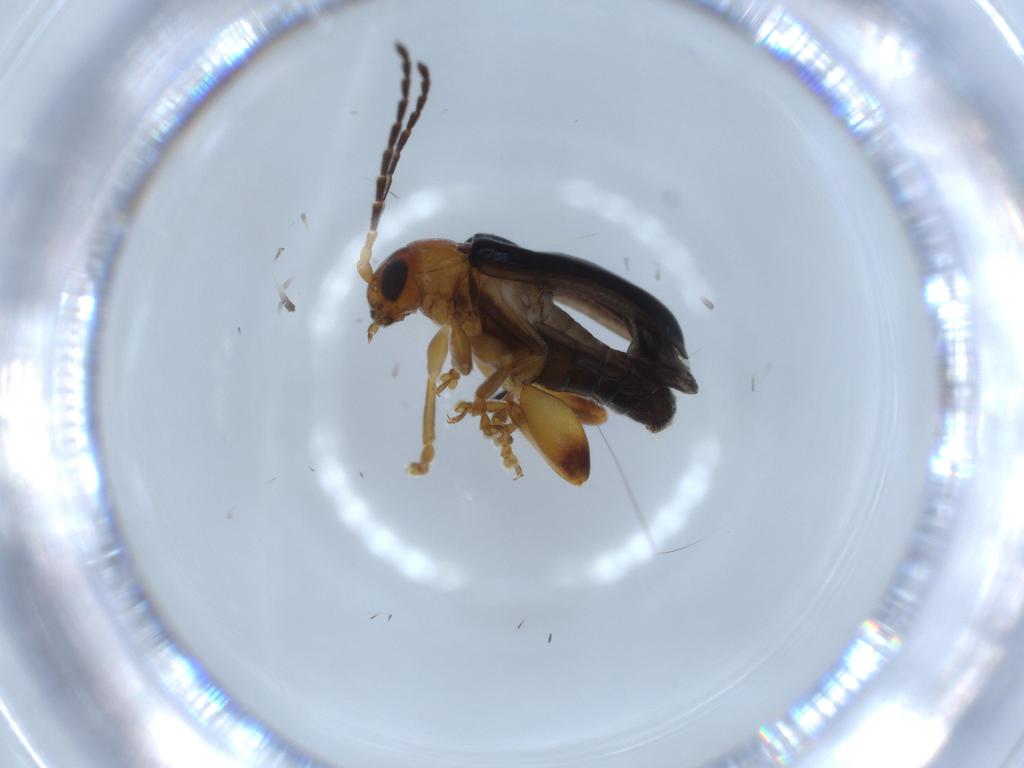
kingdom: Animalia
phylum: Arthropoda
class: Insecta
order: Coleoptera
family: Chrysomelidae
